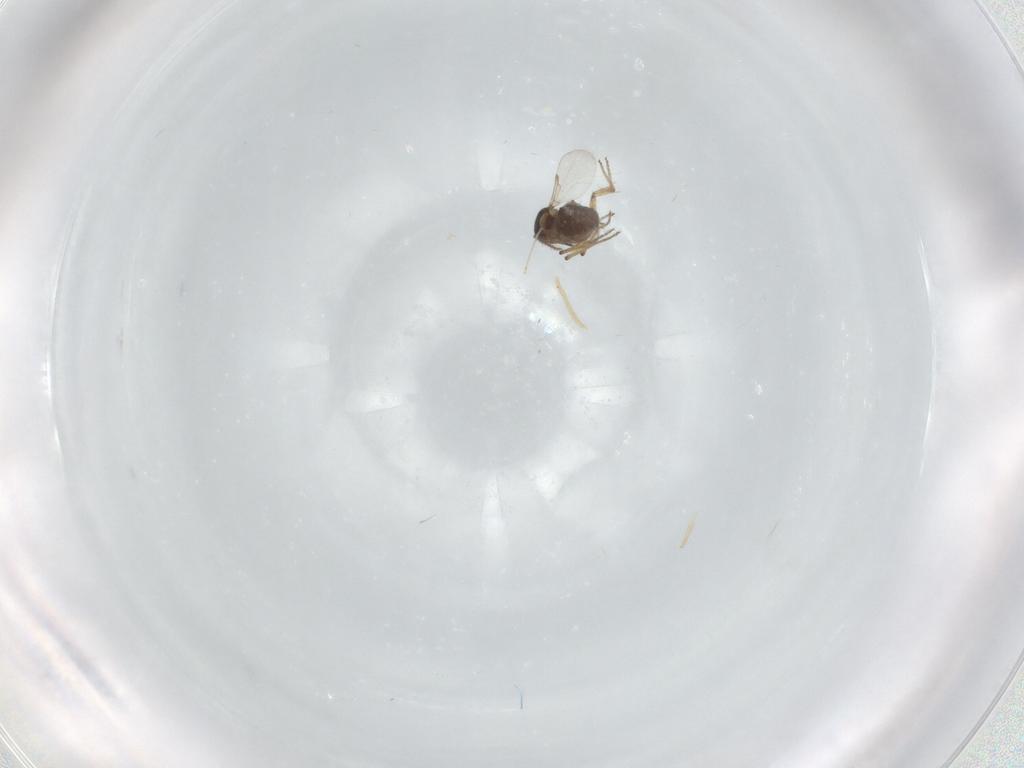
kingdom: Animalia
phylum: Arthropoda
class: Insecta
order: Diptera
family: Ceratopogonidae
